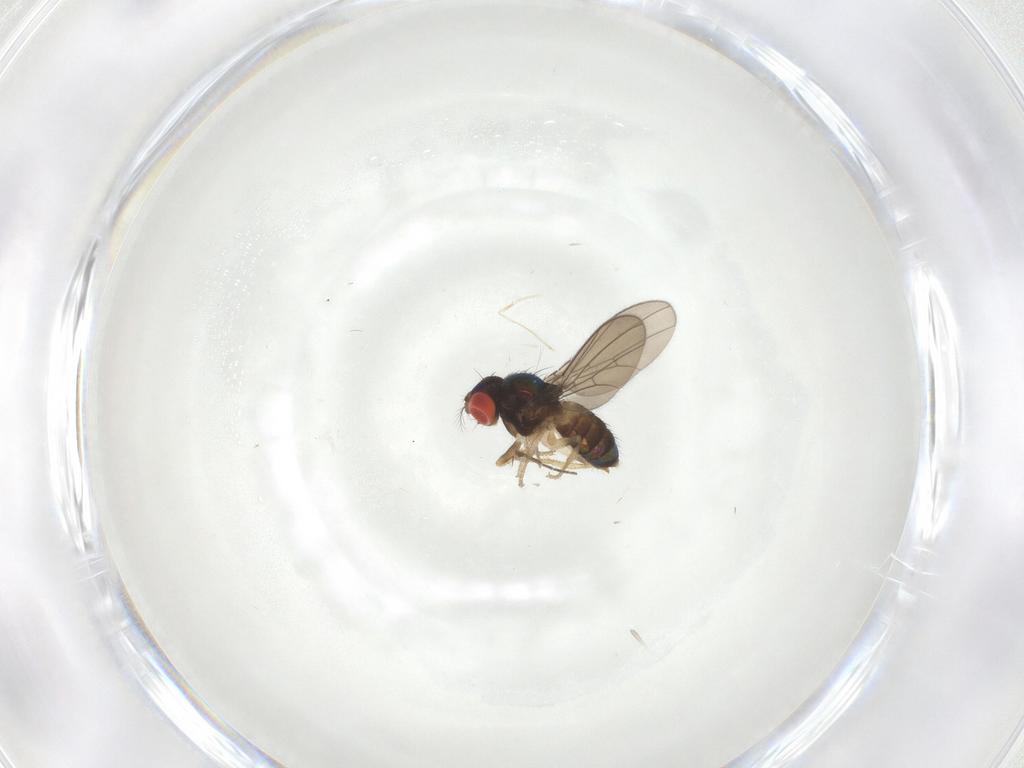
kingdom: Animalia
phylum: Arthropoda
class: Insecta
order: Diptera
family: Drosophilidae
